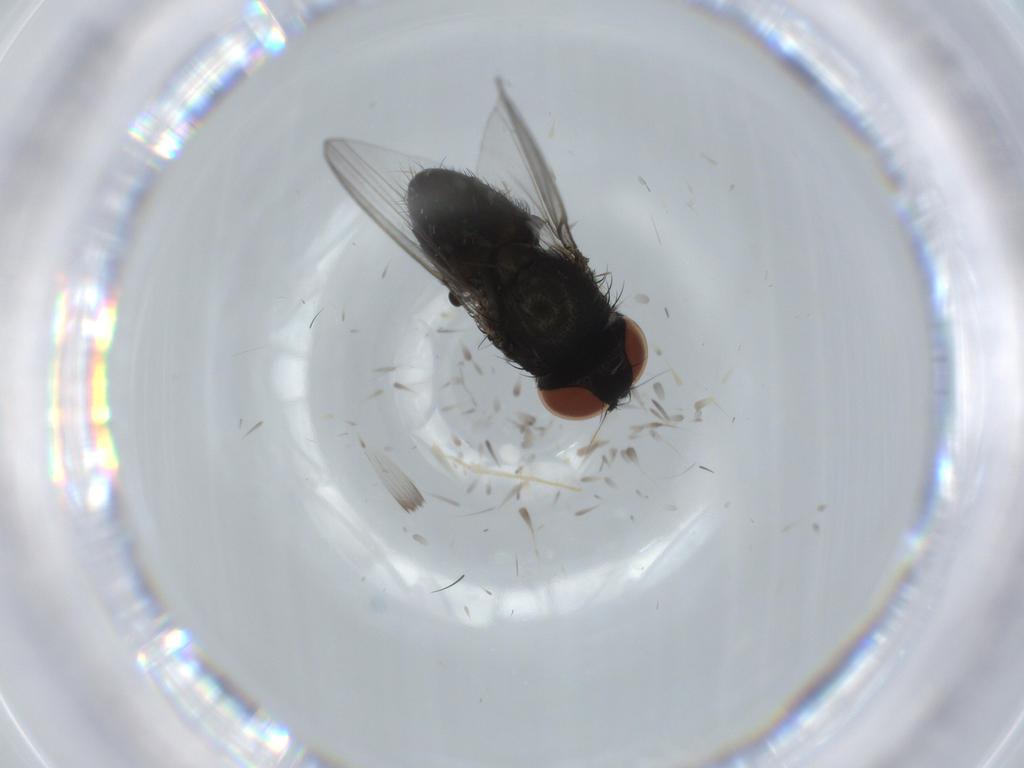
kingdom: Animalia
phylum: Arthropoda
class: Insecta
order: Diptera
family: Milichiidae
